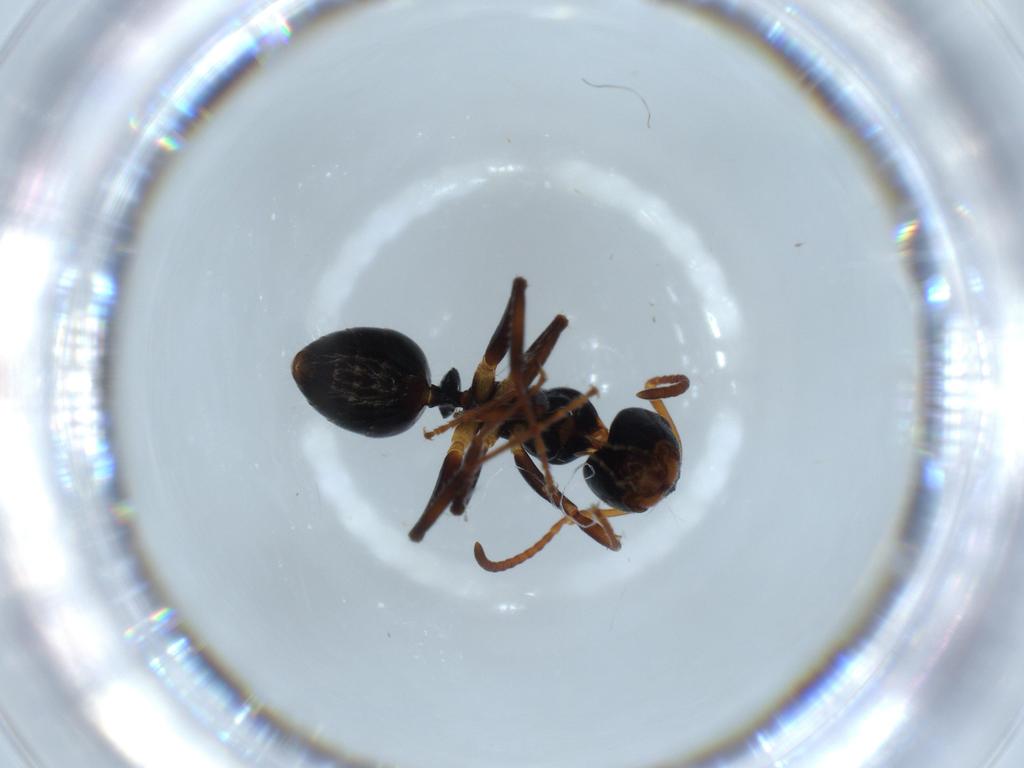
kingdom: Animalia
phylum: Arthropoda
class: Insecta
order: Hymenoptera
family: Formicidae
